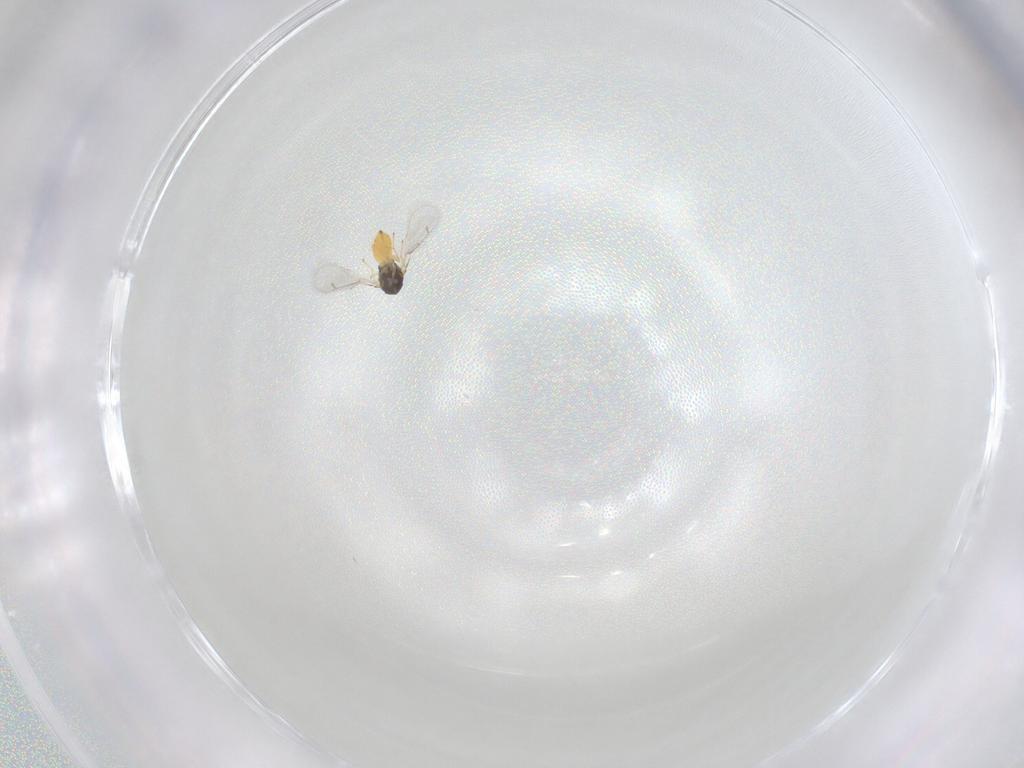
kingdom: Animalia
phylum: Arthropoda
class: Insecta
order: Hymenoptera
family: Eulophidae
